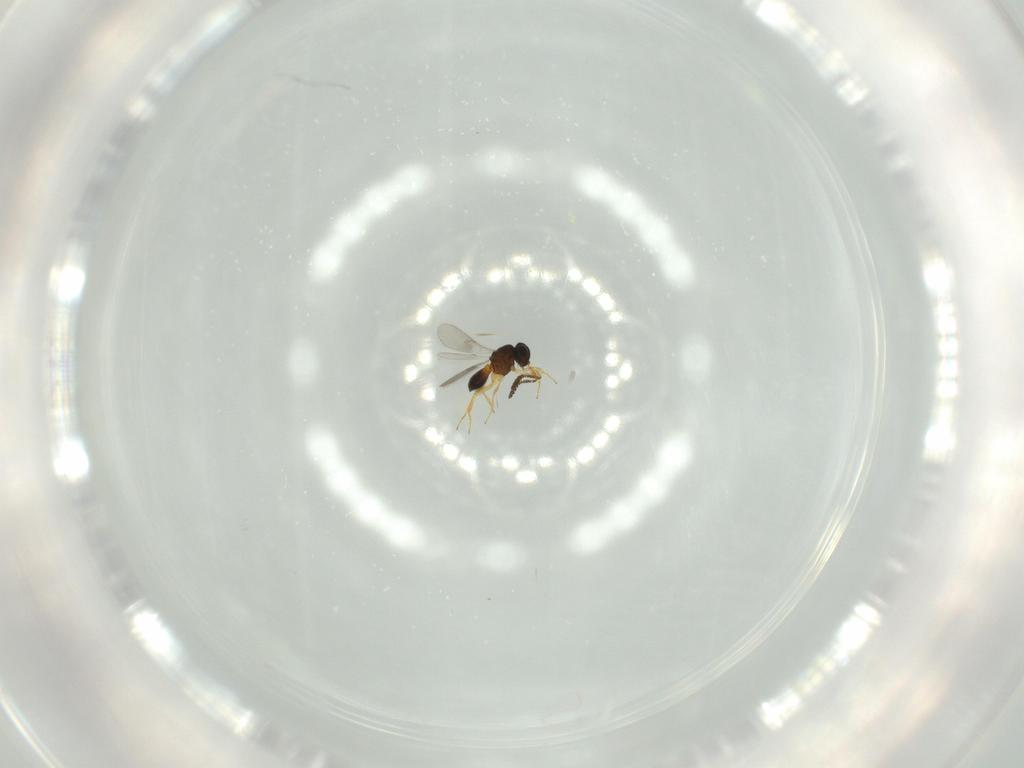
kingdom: Animalia
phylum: Arthropoda
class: Insecta
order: Hymenoptera
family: Scelionidae
